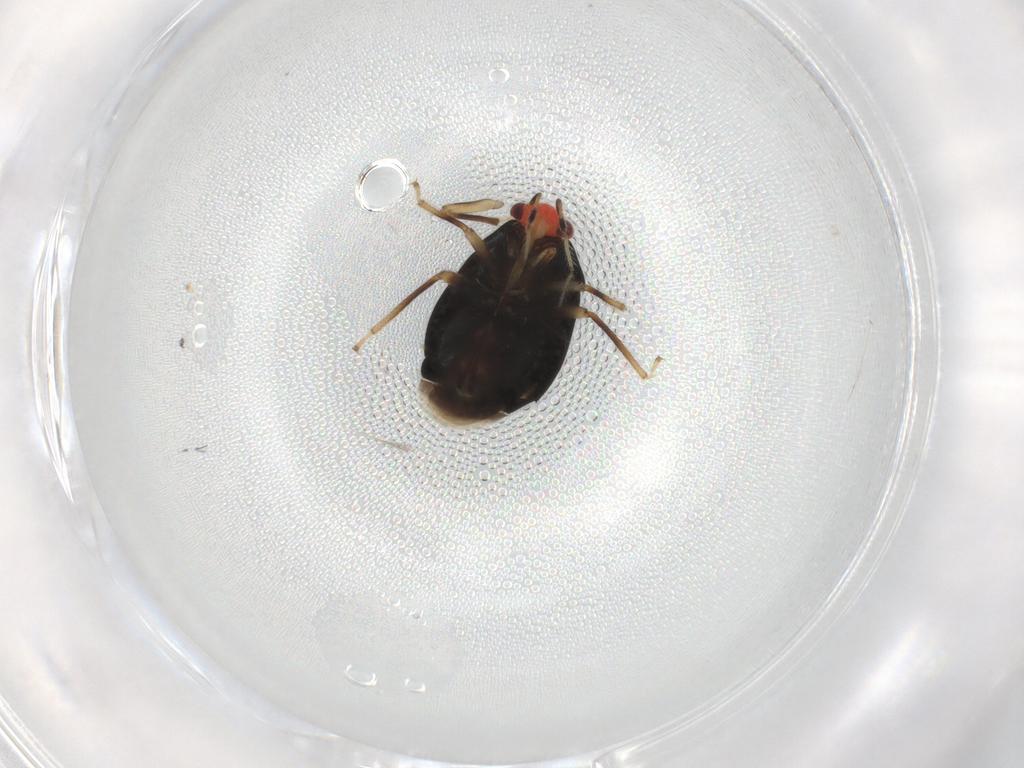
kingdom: Animalia
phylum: Arthropoda
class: Insecta
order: Hemiptera
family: Miridae
